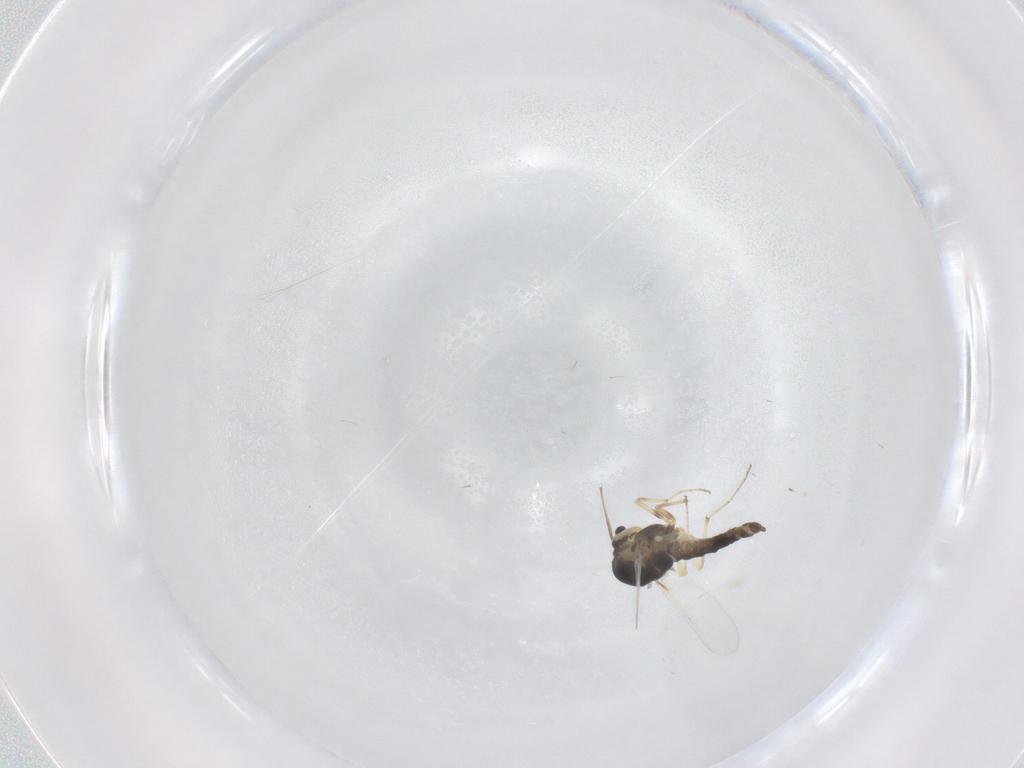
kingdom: Animalia
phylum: Arthropoda
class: Insecta
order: Diptera
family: Chironomidae
